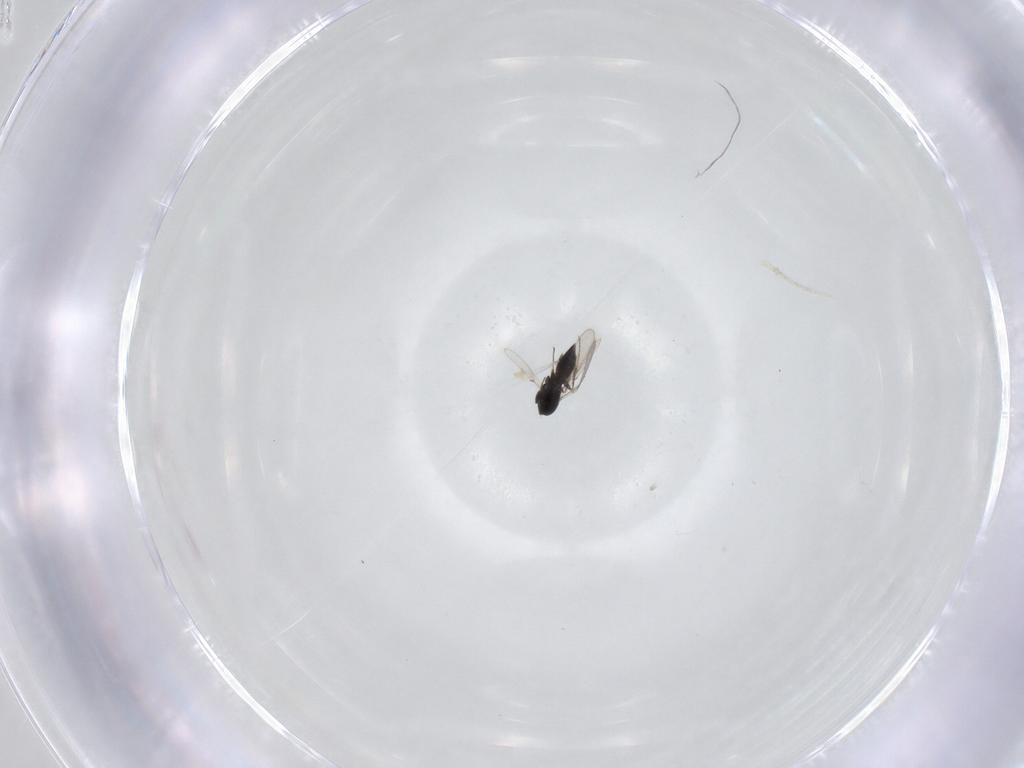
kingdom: Animalia
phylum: Arthropoda
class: Arachnida
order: Trombidiformes
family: Eriophyidae
